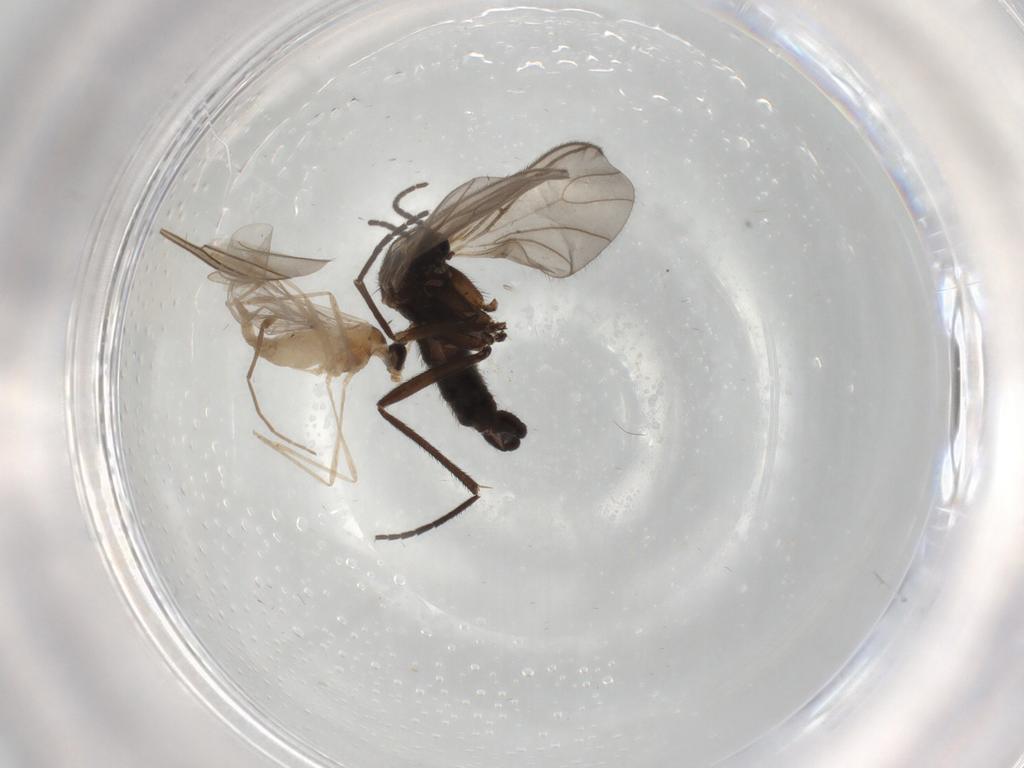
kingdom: Animalia
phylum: Arthropoda
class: Insecta
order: Diptera
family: Sciaridae
